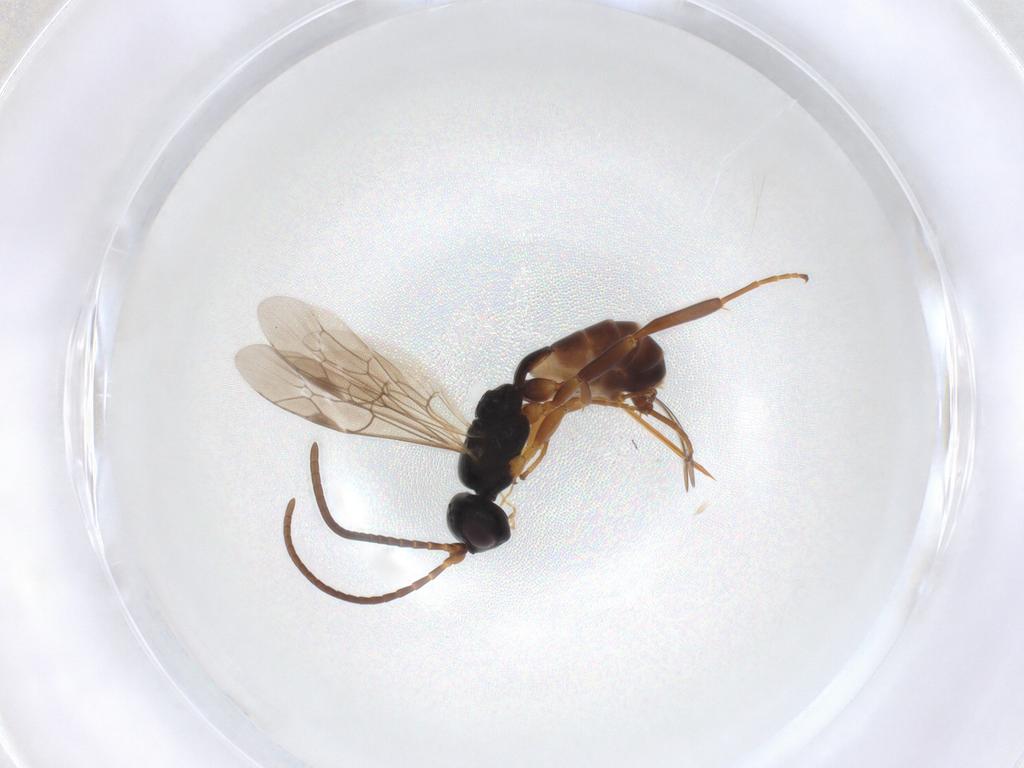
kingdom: Animalia
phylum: Arthropoda
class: Insecta
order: Hymenoptera
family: Ichneumonidae
